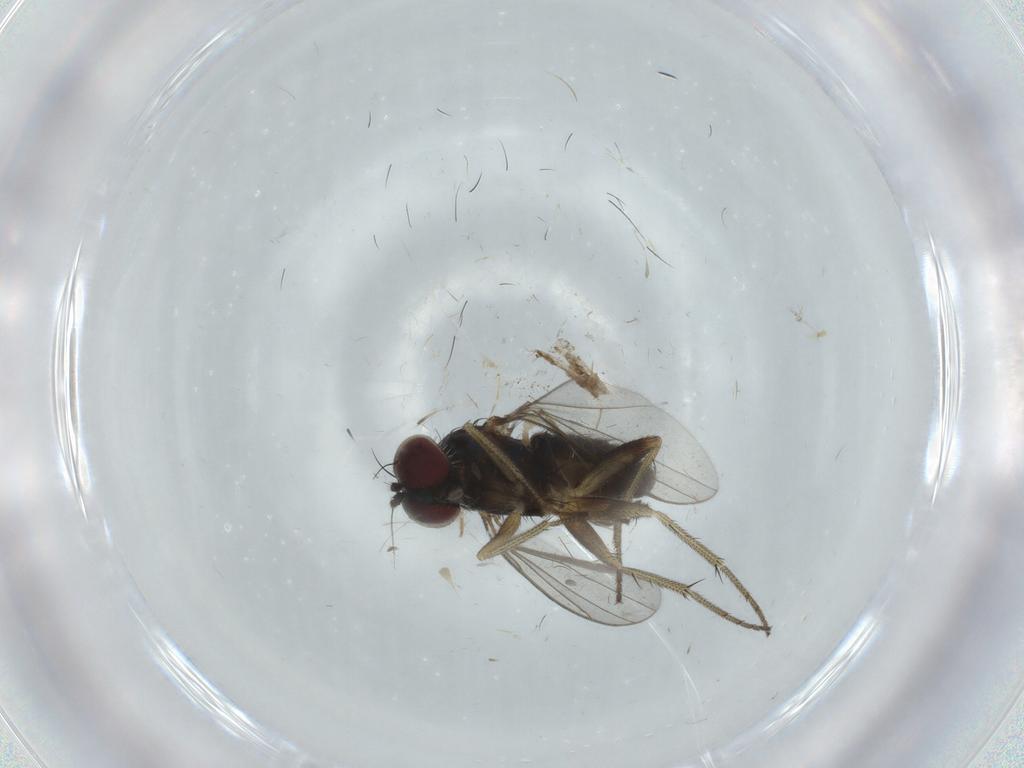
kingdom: Animalia
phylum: Arthropoda
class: Insecta
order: Diptera
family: Dolichopodidae
